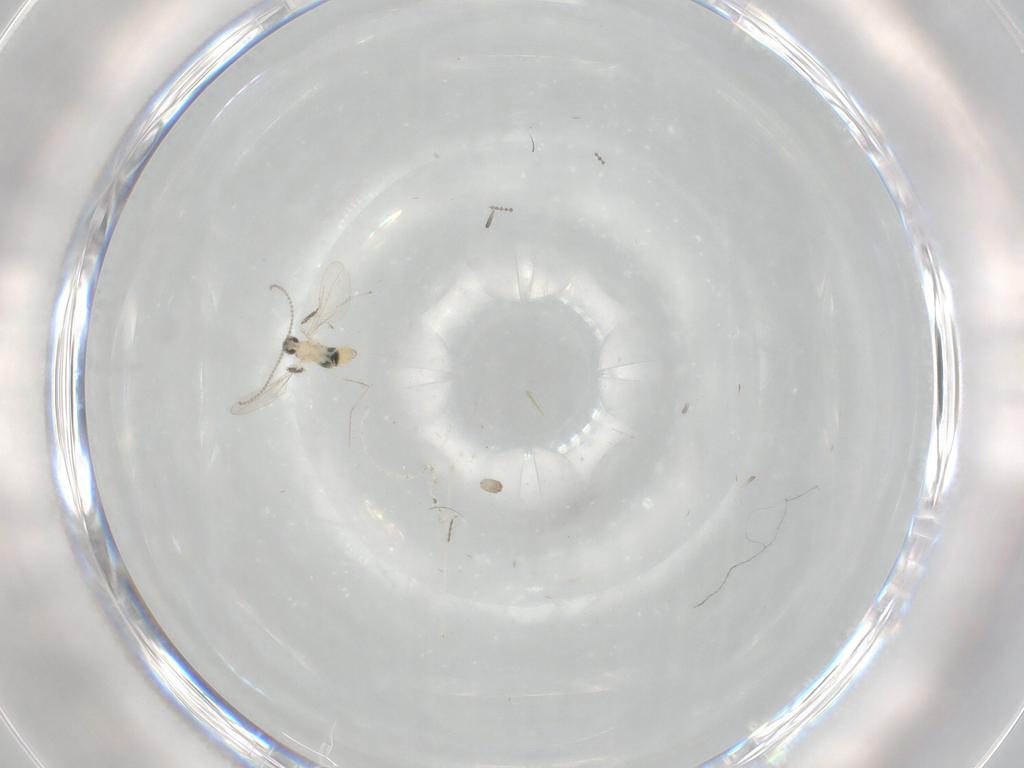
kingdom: Animalia
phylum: Arthropoda
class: Insecta
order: Diptera
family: Cecidomyiidae
